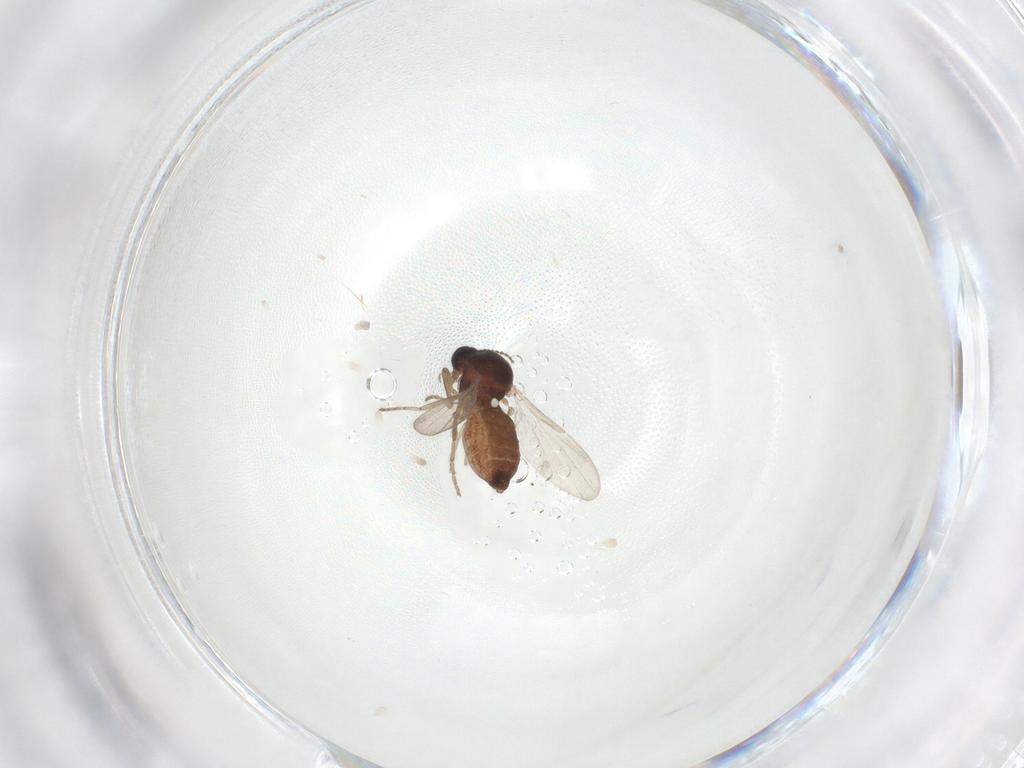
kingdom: Animalia
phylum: Arthropoda
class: Insecta
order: Diptera
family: Ceratopogonidae
